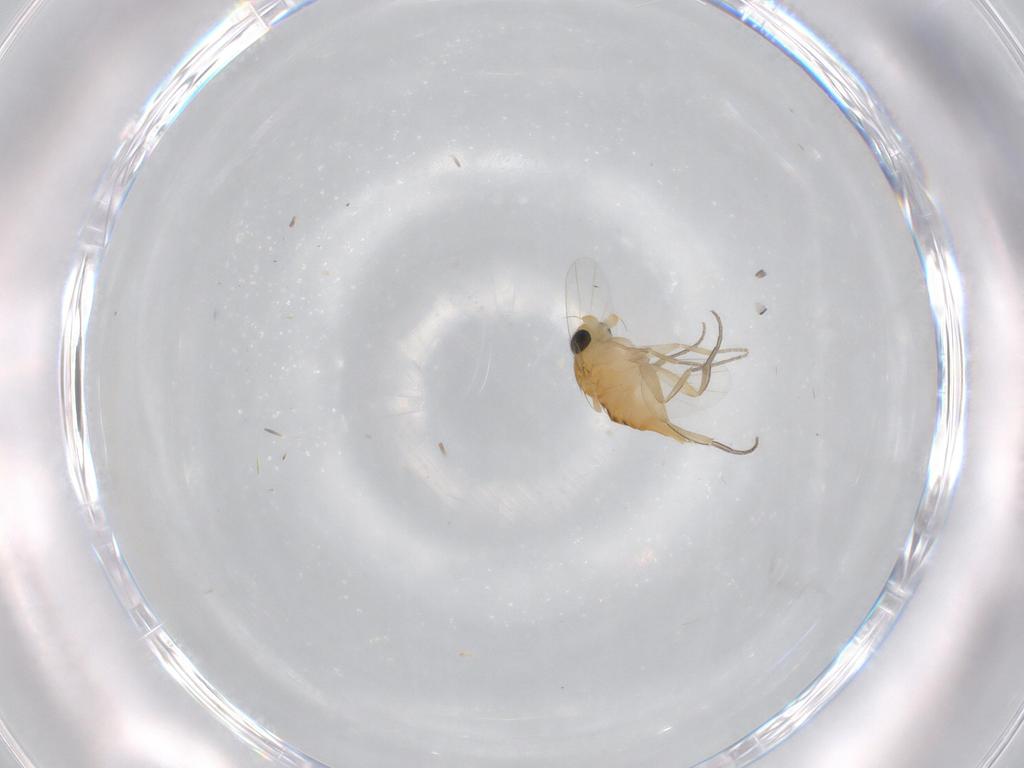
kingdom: Animalia
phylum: Arthropoda
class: Insecta
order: Diptera
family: Phoridae
